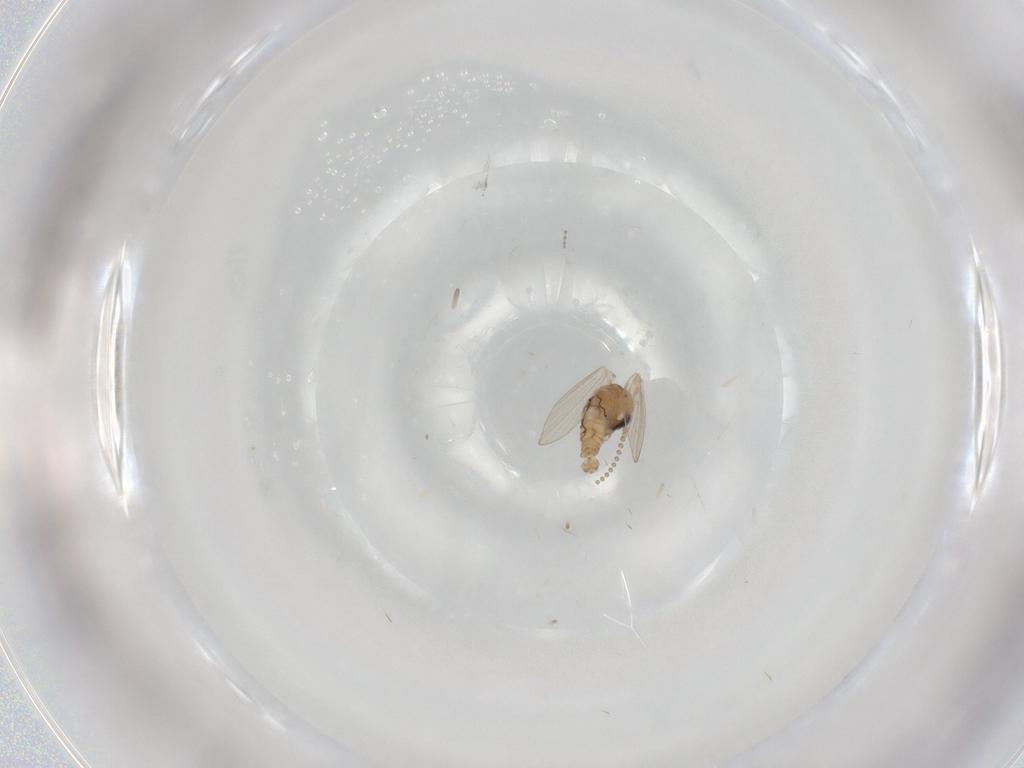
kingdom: Animalia
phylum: Arthropoda
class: Insecta
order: Diptera
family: Psychodidae
